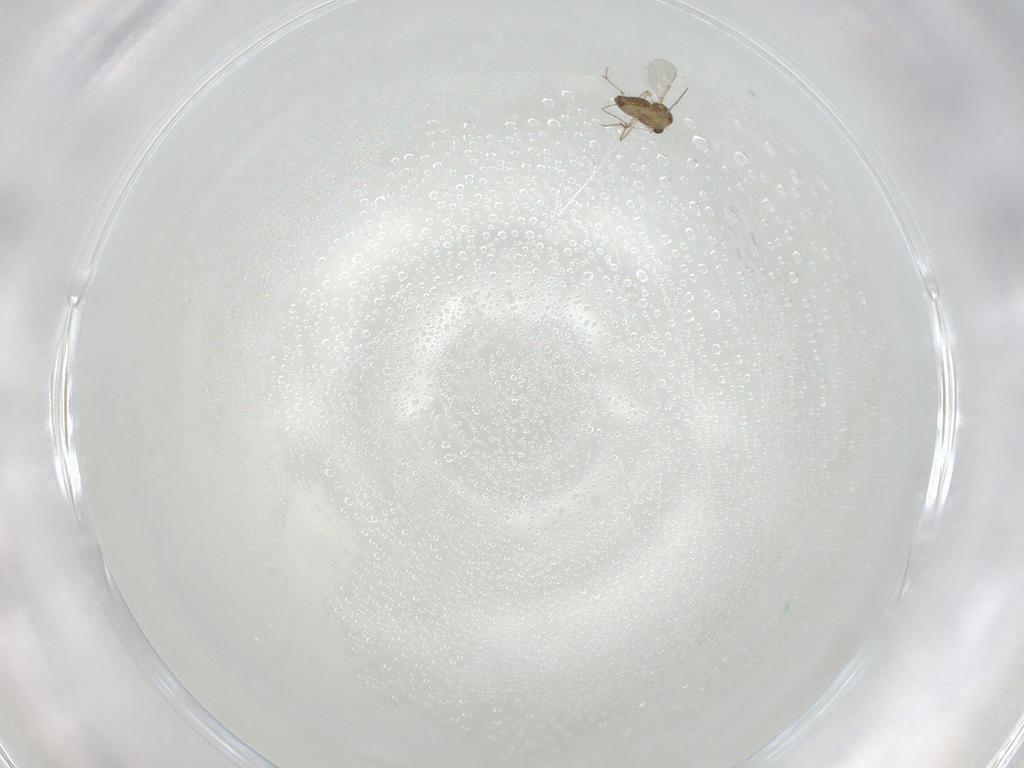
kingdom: Animalia
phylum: Arthropoda
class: Insecta
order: Diptera
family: Chironomidae
